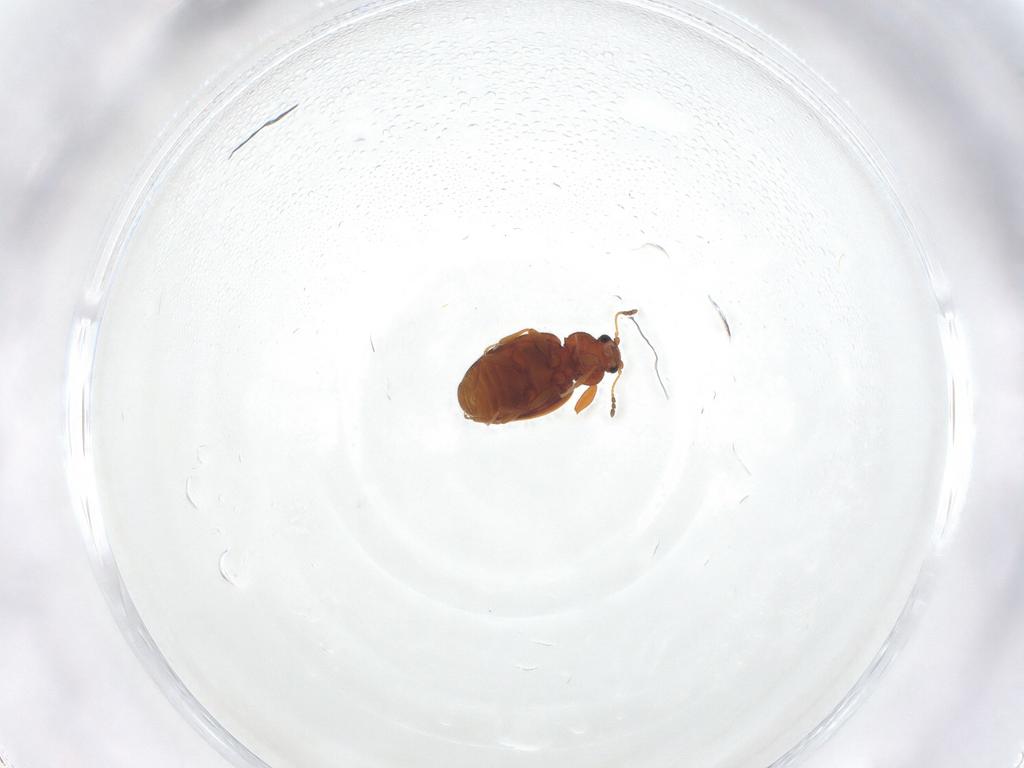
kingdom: Animalia
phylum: Arthropoda
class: Insecta
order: Coleoptera
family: Latridiidae
